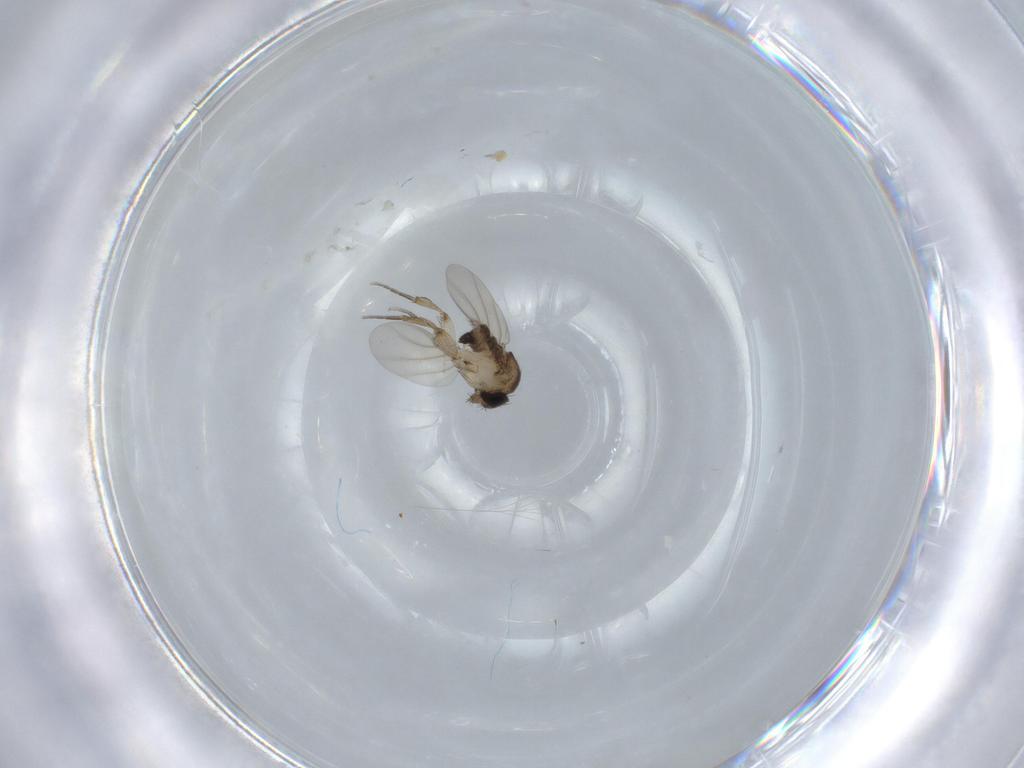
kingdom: Animalia
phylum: Arthropoda
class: Insecta
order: Diptera
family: Phoridae
